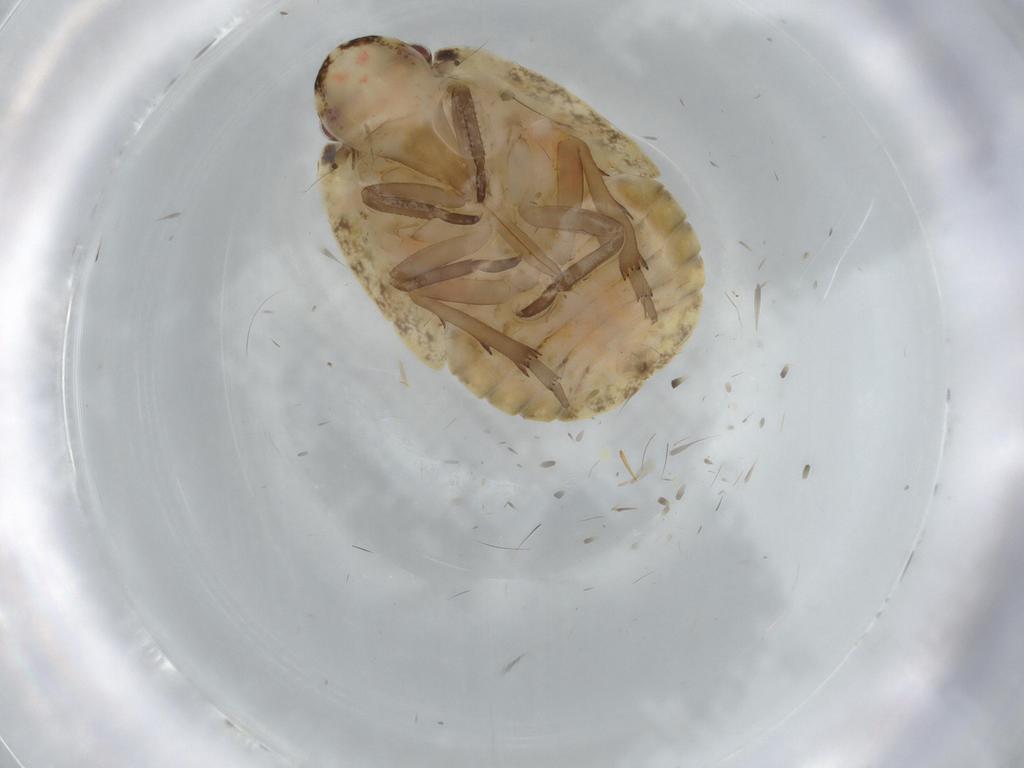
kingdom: Animalia
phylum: Arthropoda
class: Insecta
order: Hemiptera
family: Flatidae
